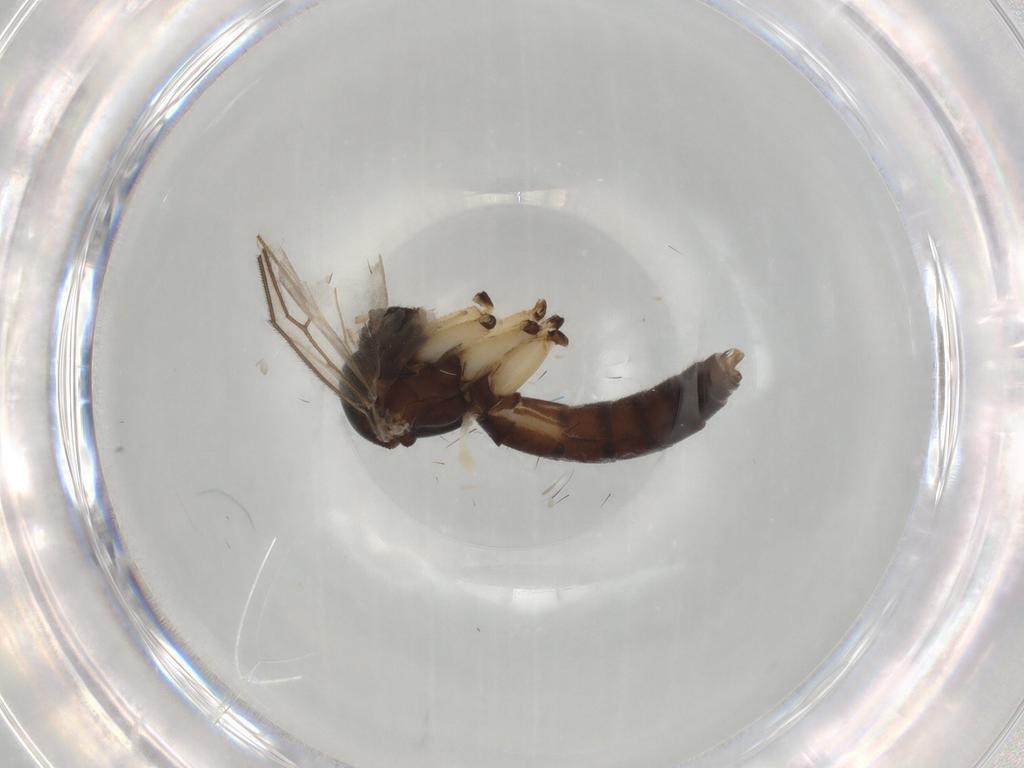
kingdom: Animalia
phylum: Arthropoda
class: Insecta
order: Diptera
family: Mycetophilidae
